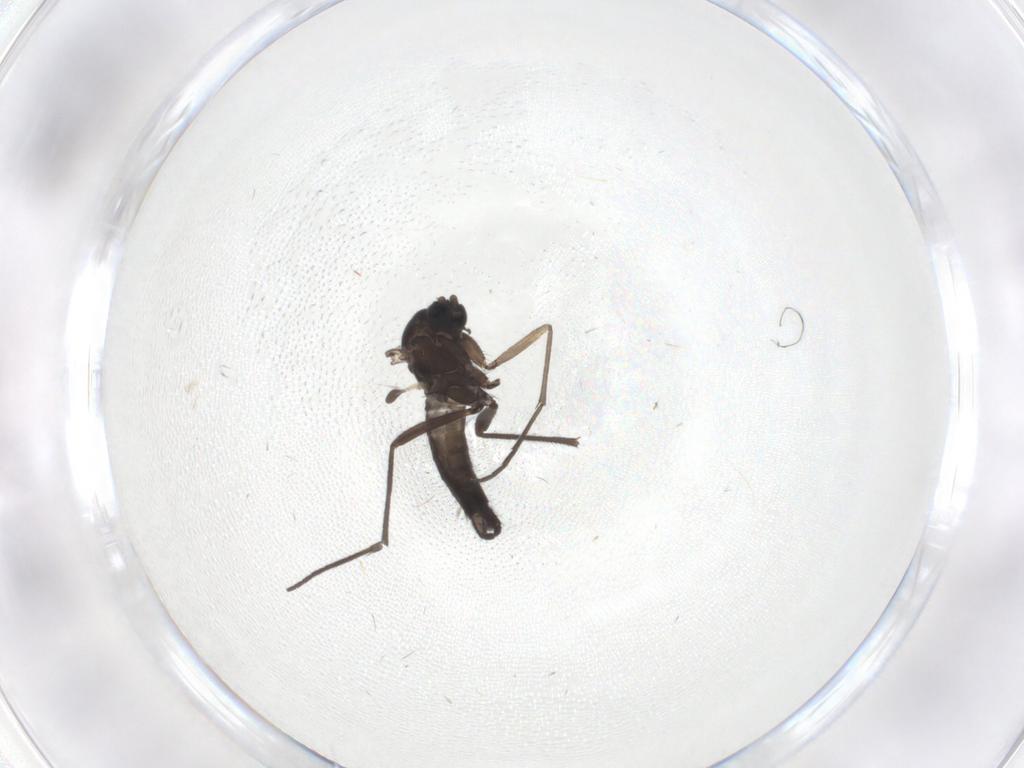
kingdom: Animalia
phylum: Arthropoda
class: Insecta
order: Diptera
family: Sciaridae
